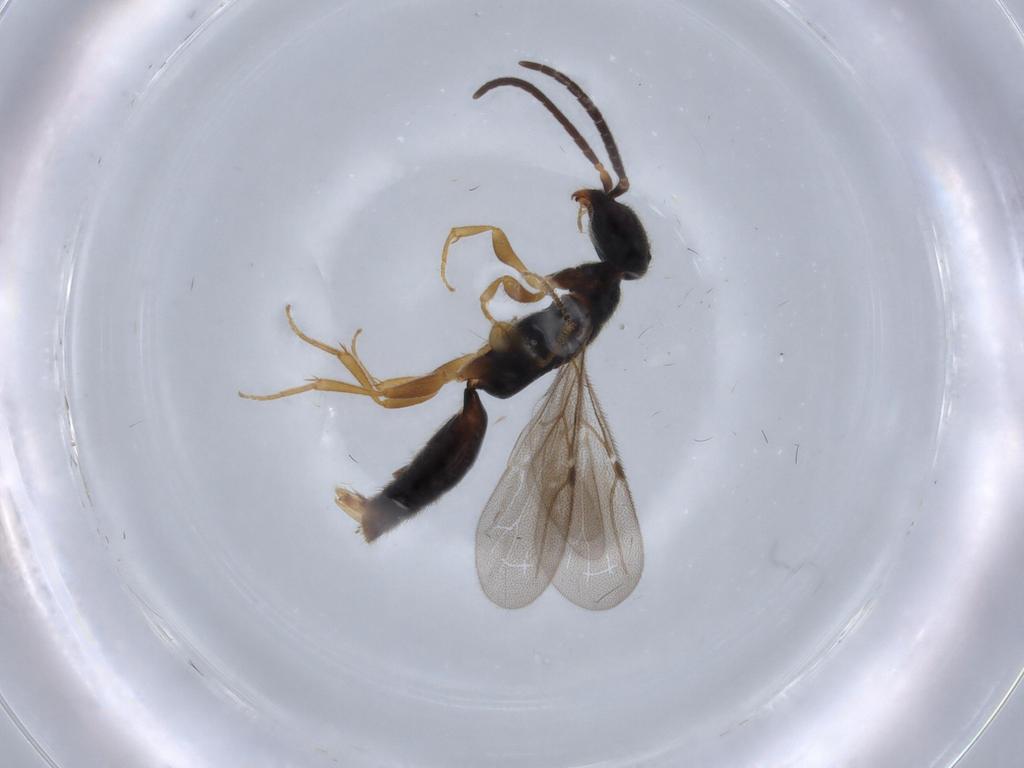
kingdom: Animalia
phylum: Arthropoda
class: Insecta
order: Hymenoptera
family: Bethylidae
